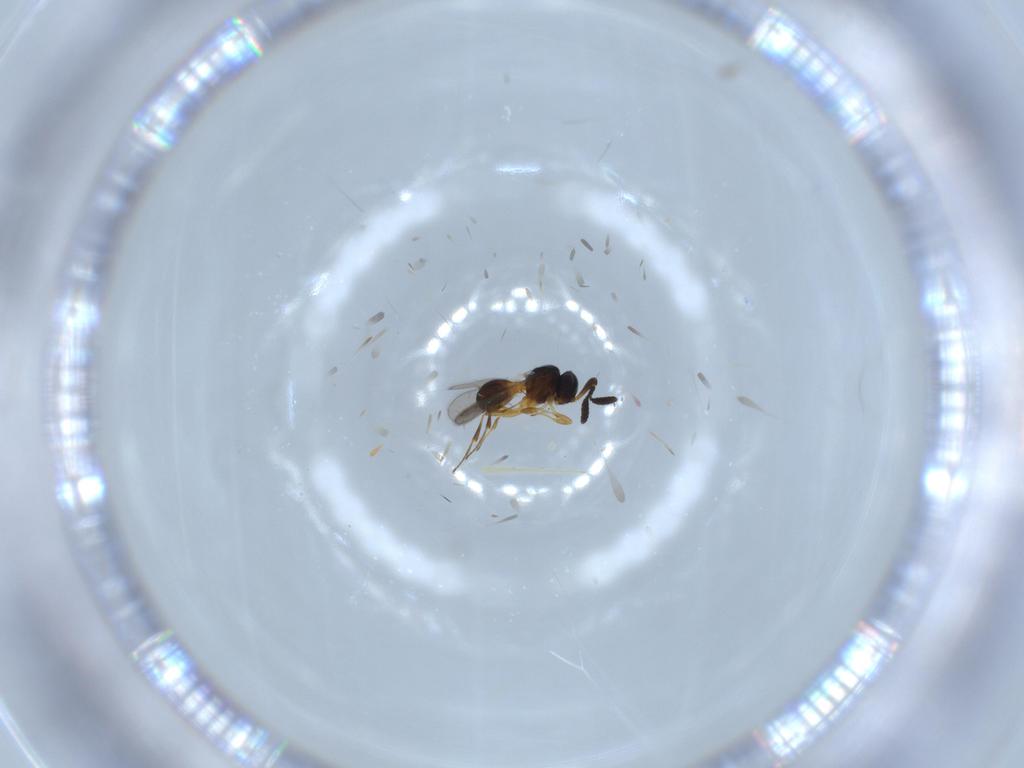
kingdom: Animalia
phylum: Arthropoda
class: Insecta
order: Hymenoptera
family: Scelionidae
